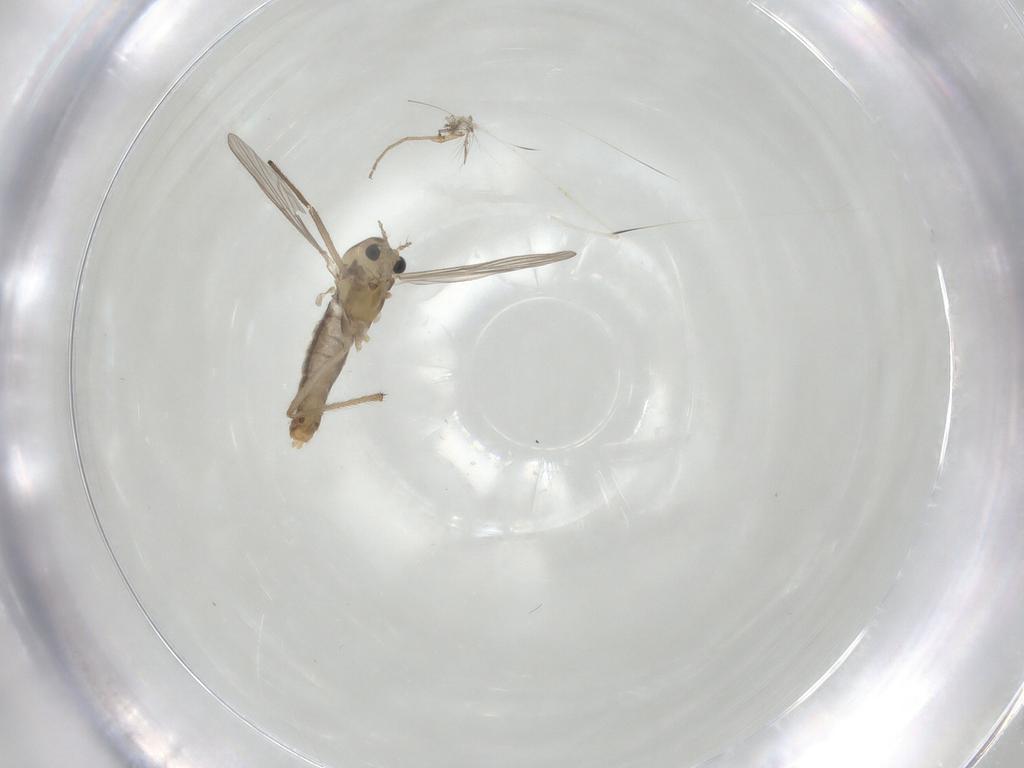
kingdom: Animalia
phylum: Arthropoda
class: Insecta
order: Diptera
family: Chironomidae
